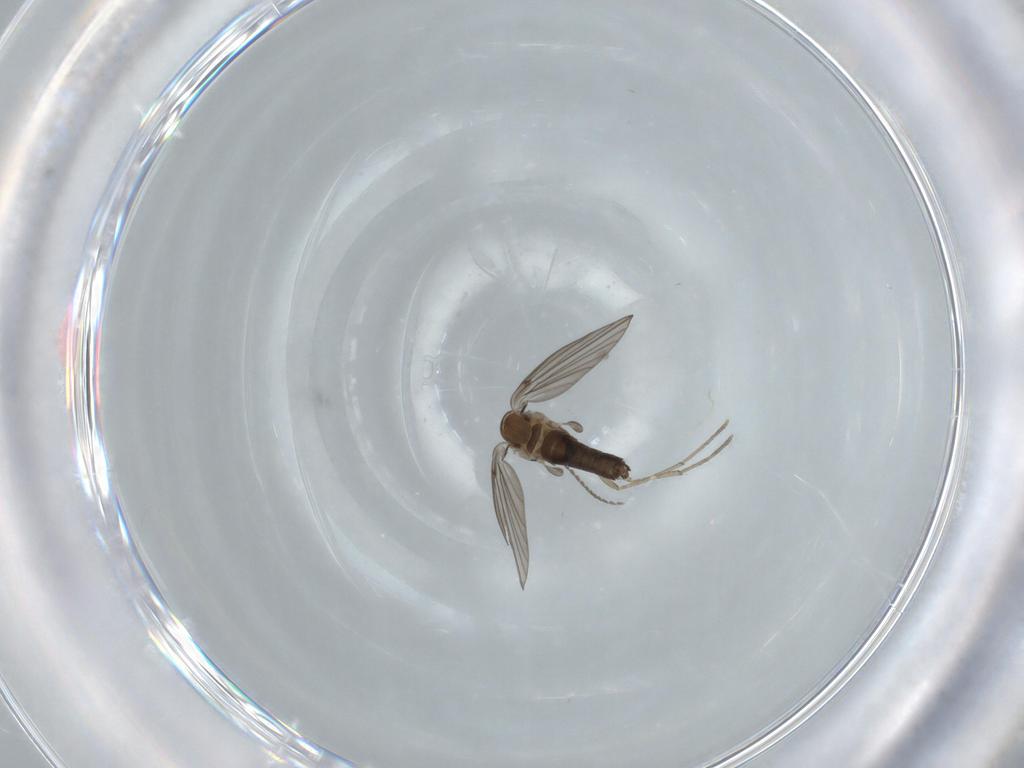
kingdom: Animalia
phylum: Arthropoda
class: Insecta
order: Diptera
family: Psychodidae
